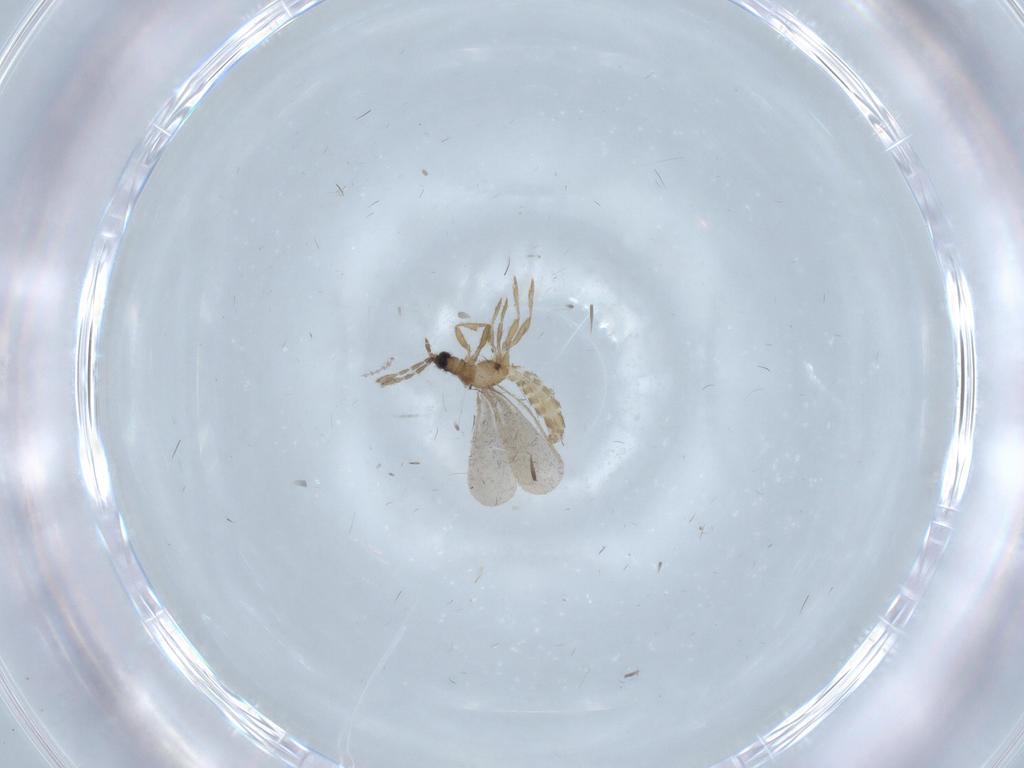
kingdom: Animalia
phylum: Arthropoda
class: Insecta
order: Hemiptera
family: Enicocephalidae
